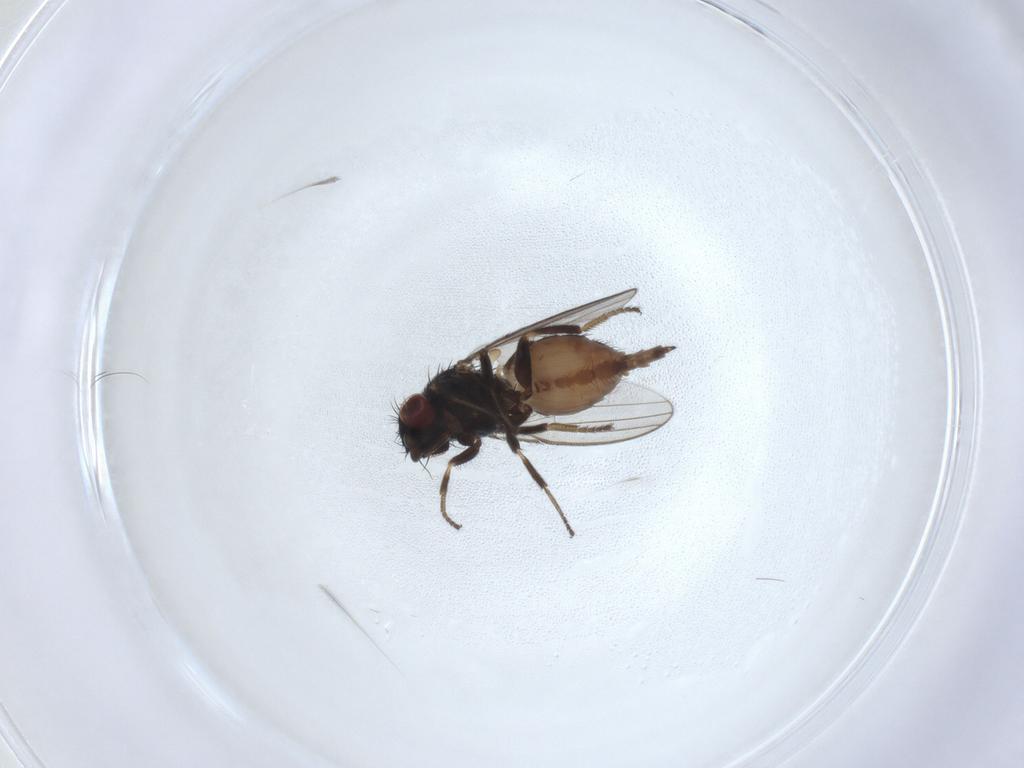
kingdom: Animalia
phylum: Arthropoda
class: Insecta
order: Diptera
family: Milichiidae
